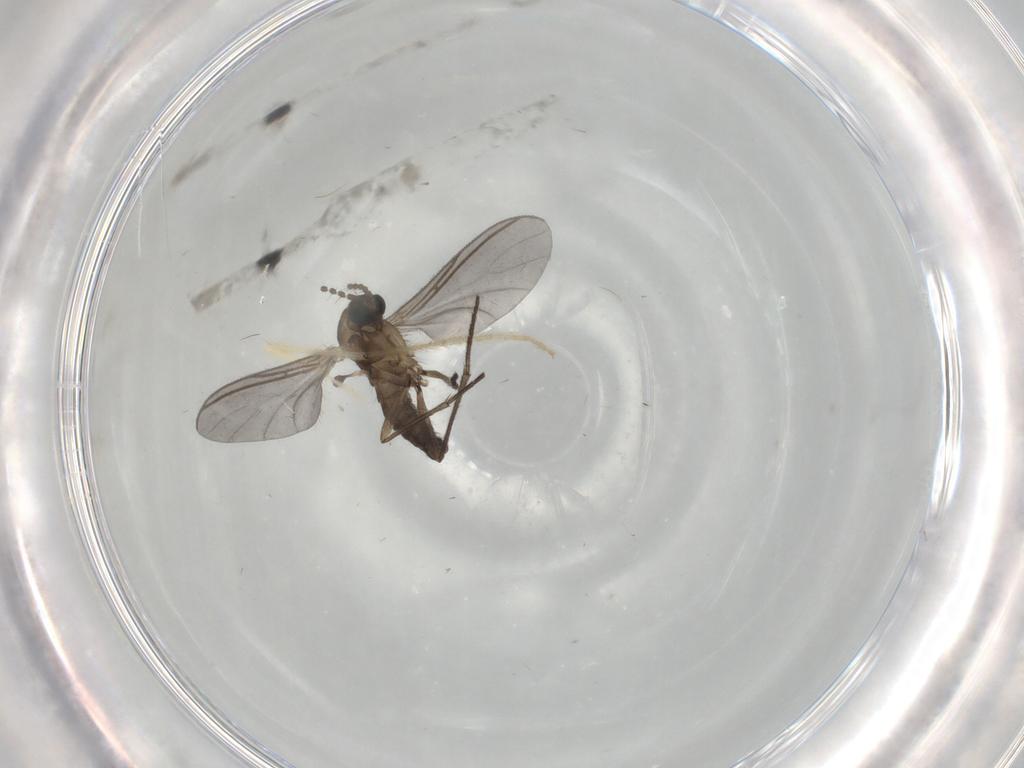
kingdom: Animalia
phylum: Arthropoda
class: Insecta
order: Diptera
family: Sciaridae
